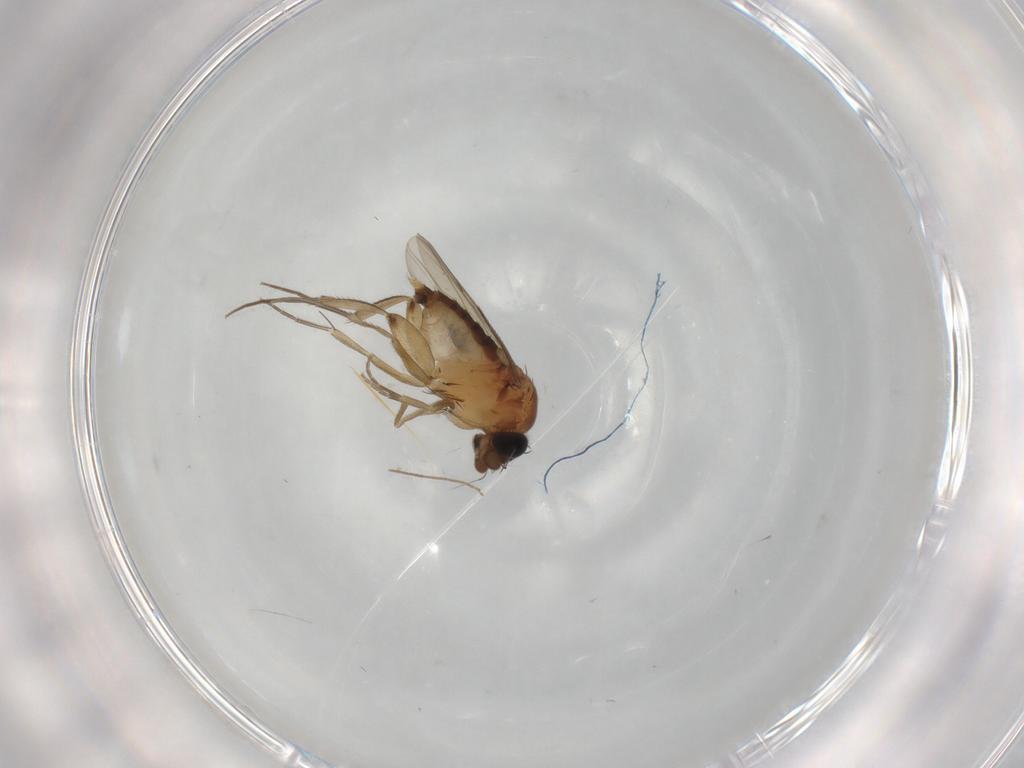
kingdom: Animalia
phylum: Arthropoda
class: Insecta
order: Diptera
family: Phoridae
